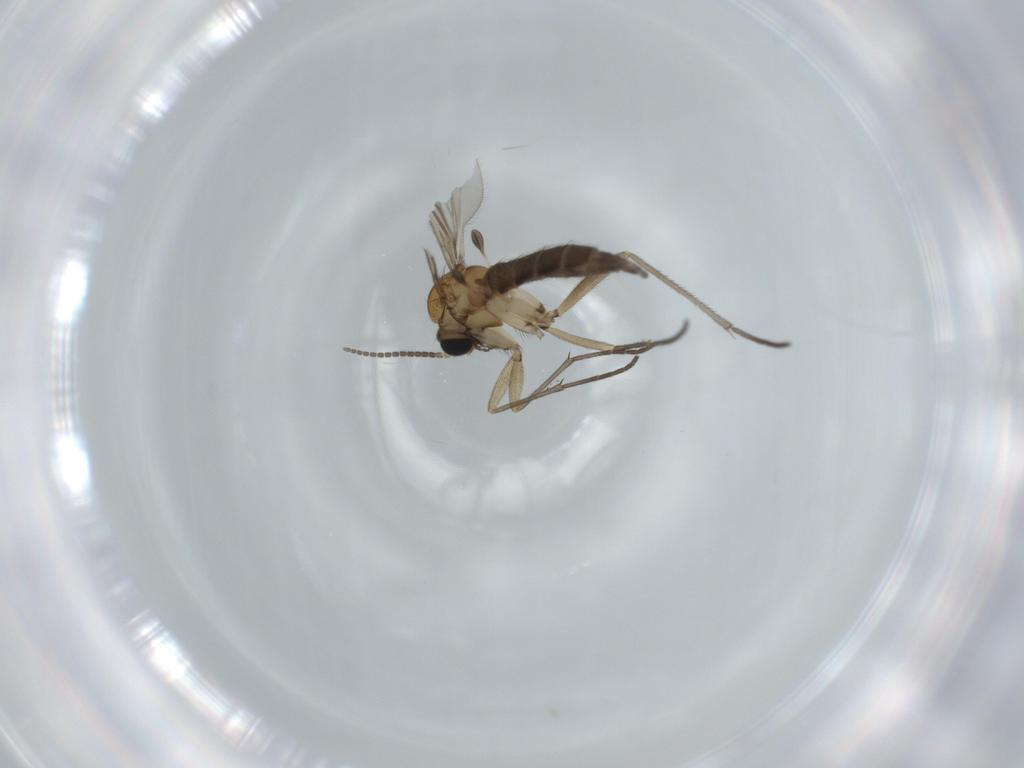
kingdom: Animalia
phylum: Arthropoda
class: Insecta
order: Diptera
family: Sciaridae
